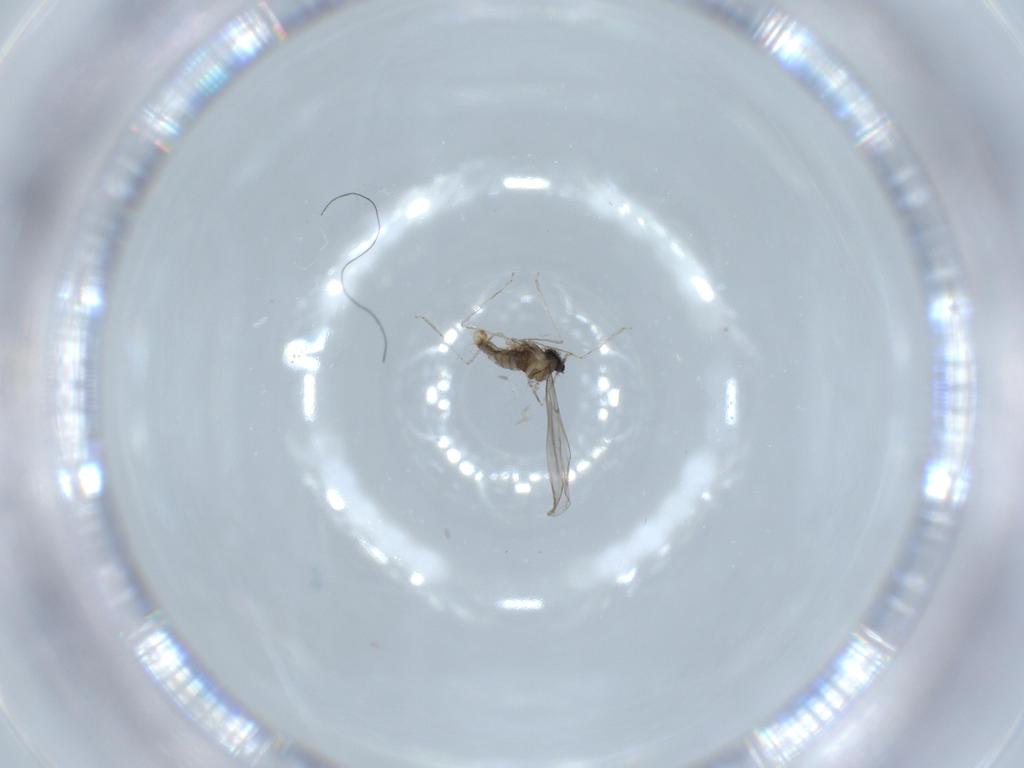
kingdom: Animalia
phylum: Arthropoda
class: Insecta
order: Diptera
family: Cecidomyiidae
